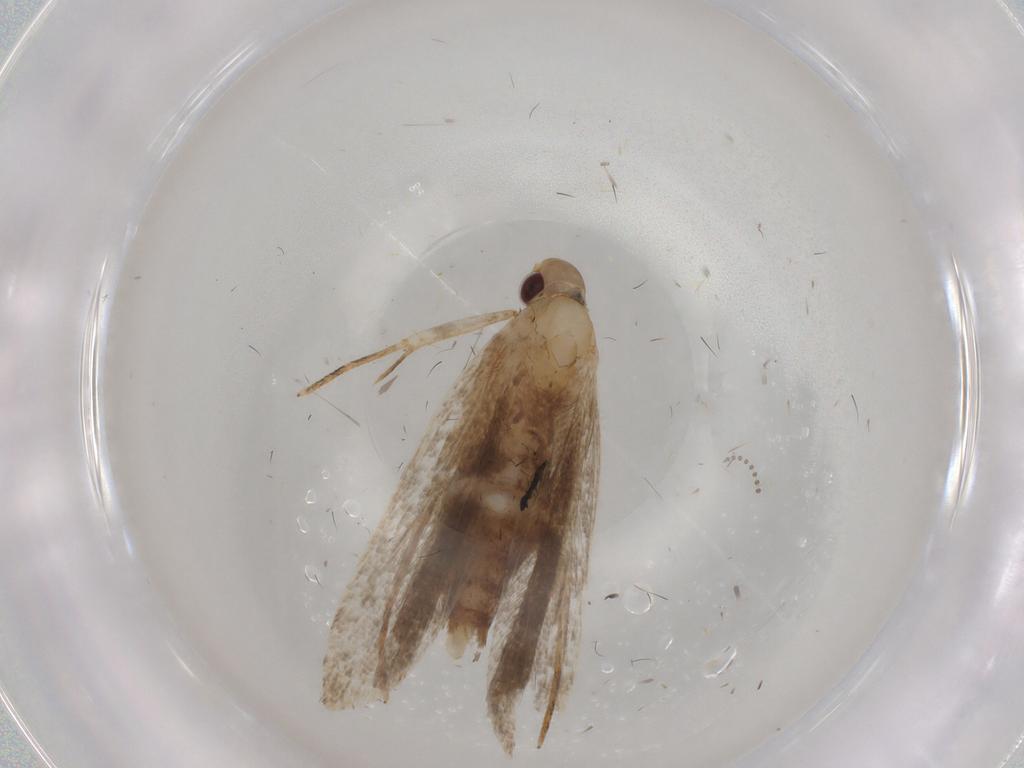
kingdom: Animalia
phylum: Arthropoda
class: Insecta
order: Lepidoptera
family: Gelechiidae
